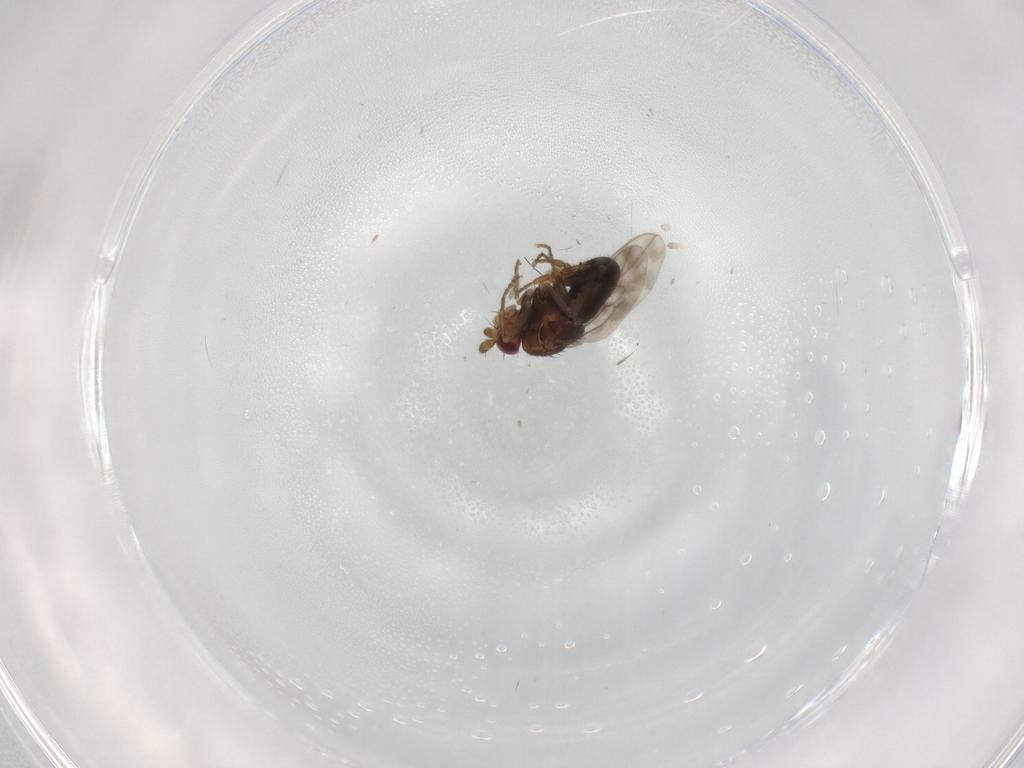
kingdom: Animalia
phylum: Arthropoda
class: Insecta
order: Diptera
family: Sphaeroceridae
